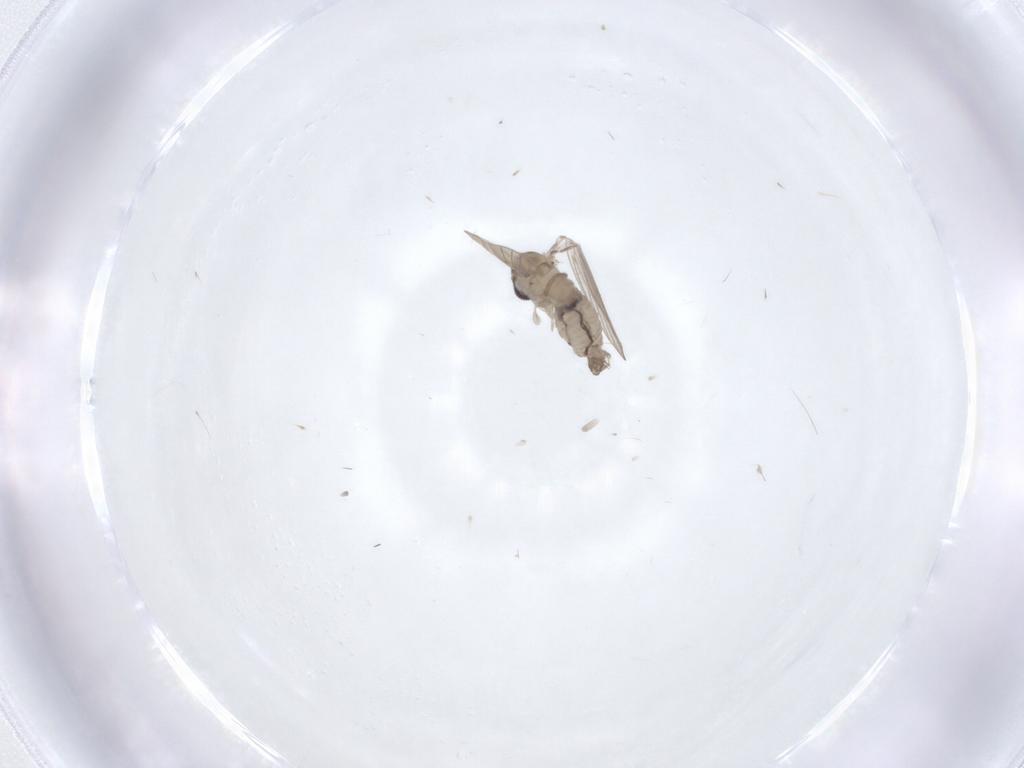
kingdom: Animalia
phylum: Arthropoda
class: Insecta
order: Diptera
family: Psychodidae
